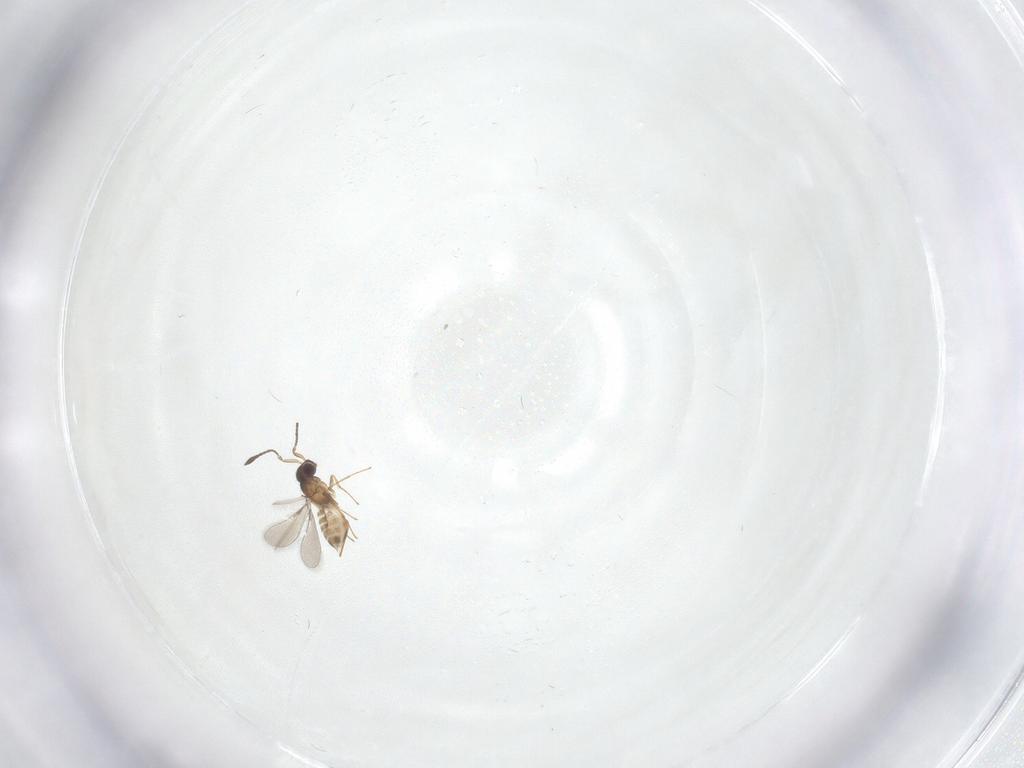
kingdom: Animalia
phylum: Arthropoda
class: Insecta
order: Hymenoptera
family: Mymaridae
